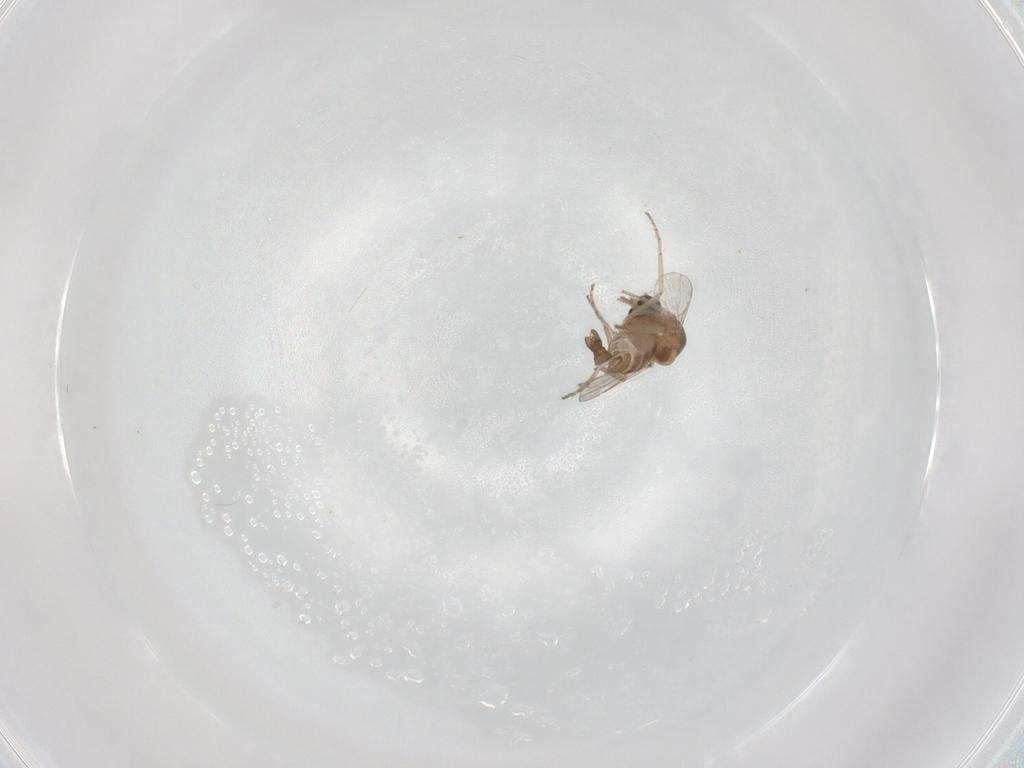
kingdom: Animalia
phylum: Arthropoda
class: Insecta
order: Diptera
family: Chironomidae
